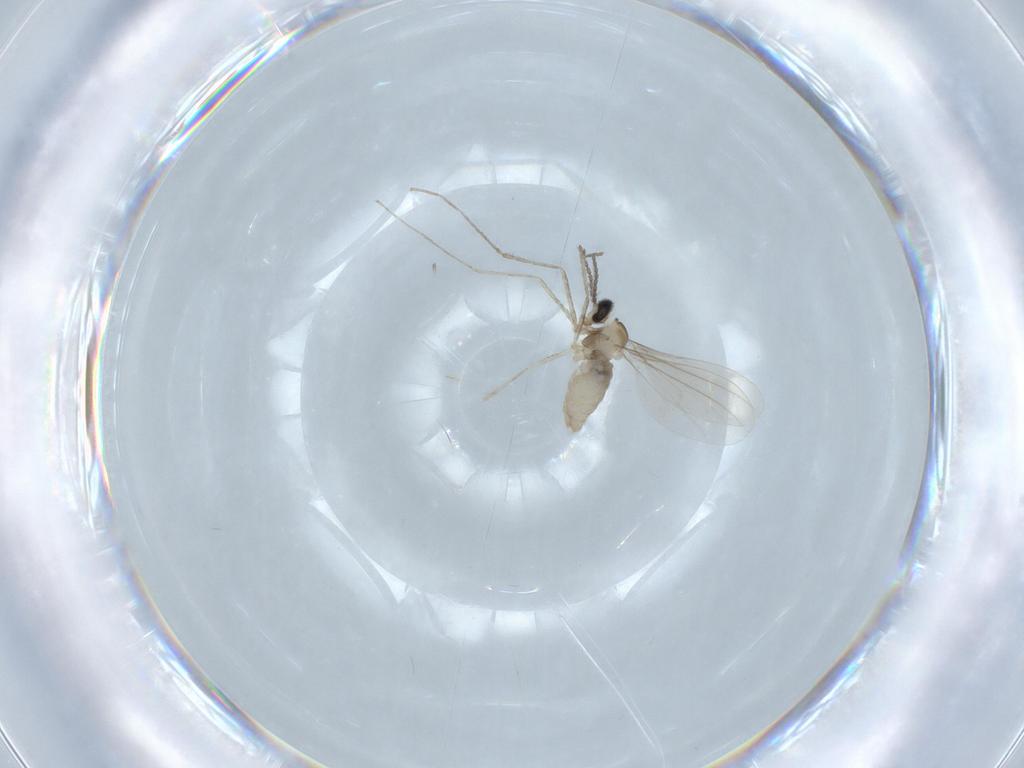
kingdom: Animalia
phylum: Arthropoda
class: Insecta
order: Diptera
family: Cecidomyiidae
